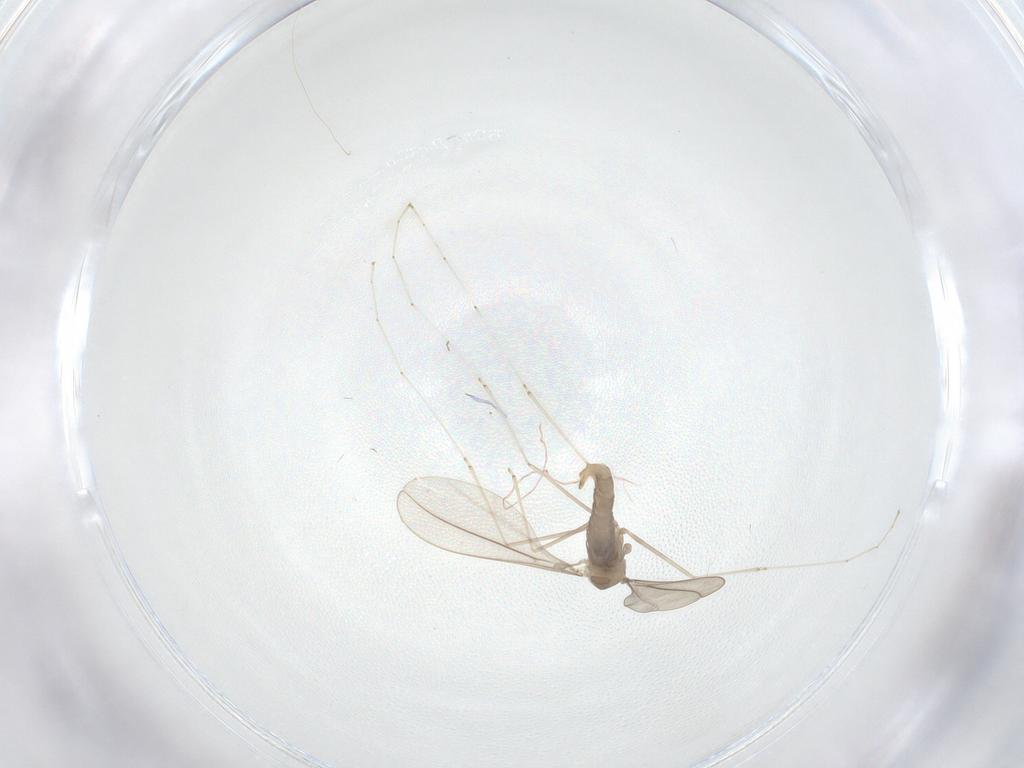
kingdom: Animalia
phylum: Arthropoda
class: Insecta
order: Diptera
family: Cecidomyiidae
